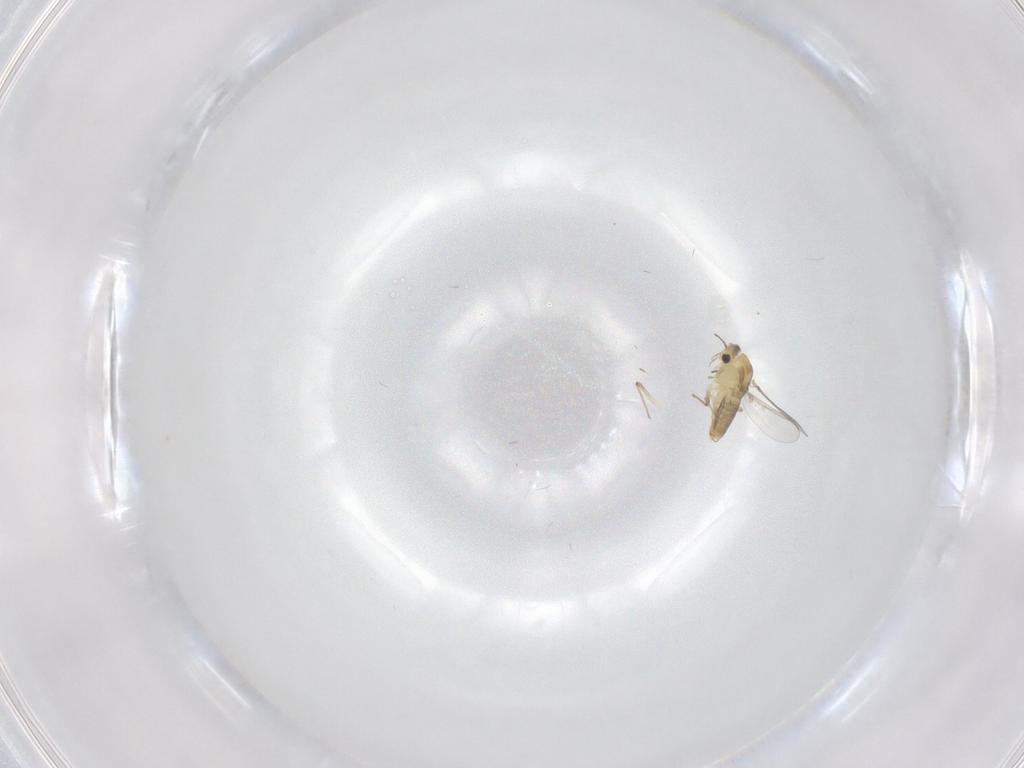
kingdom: Animalia
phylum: Arthropoda
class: Insecta
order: Diptera
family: Chironomidae
